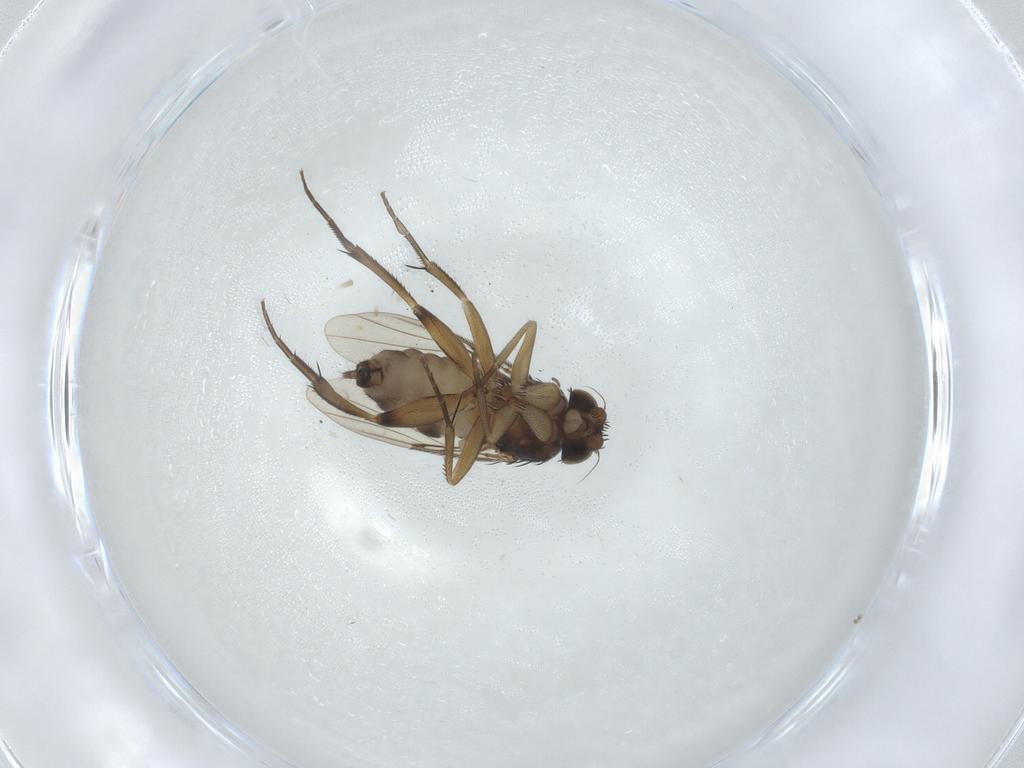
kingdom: Animalia
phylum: Arthropoda
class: Insecta
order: Diptera
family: Phoridae
